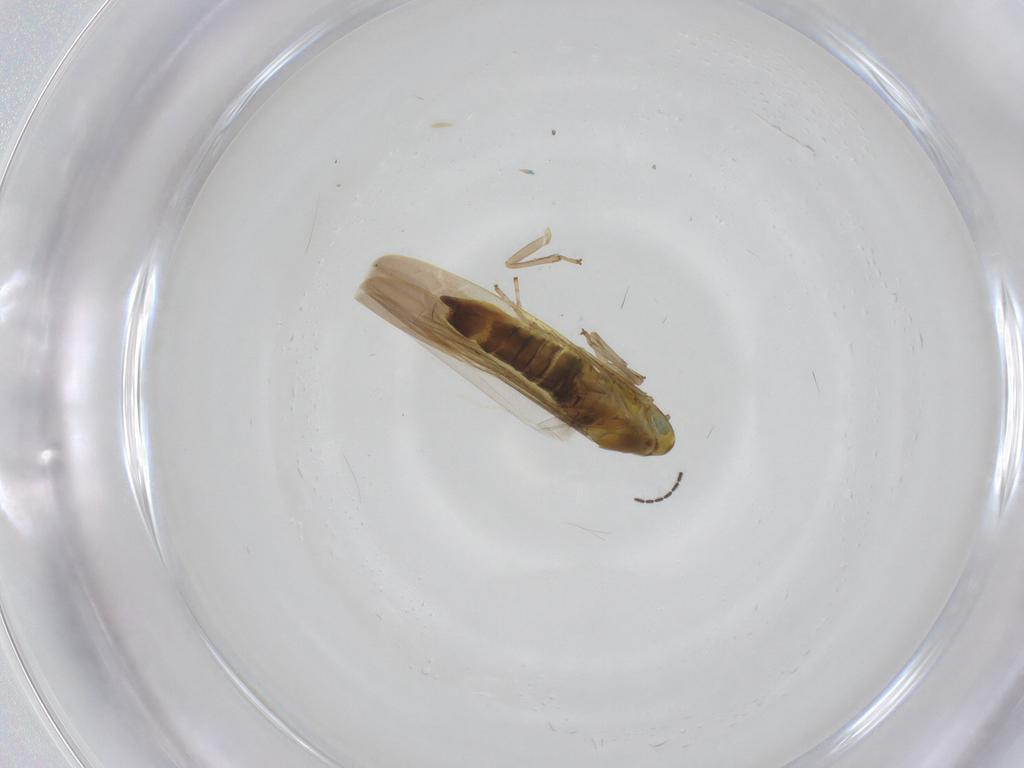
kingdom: Animalia
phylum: Arthropoda
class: Insecta
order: Hemiptera
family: Cicadellidae
